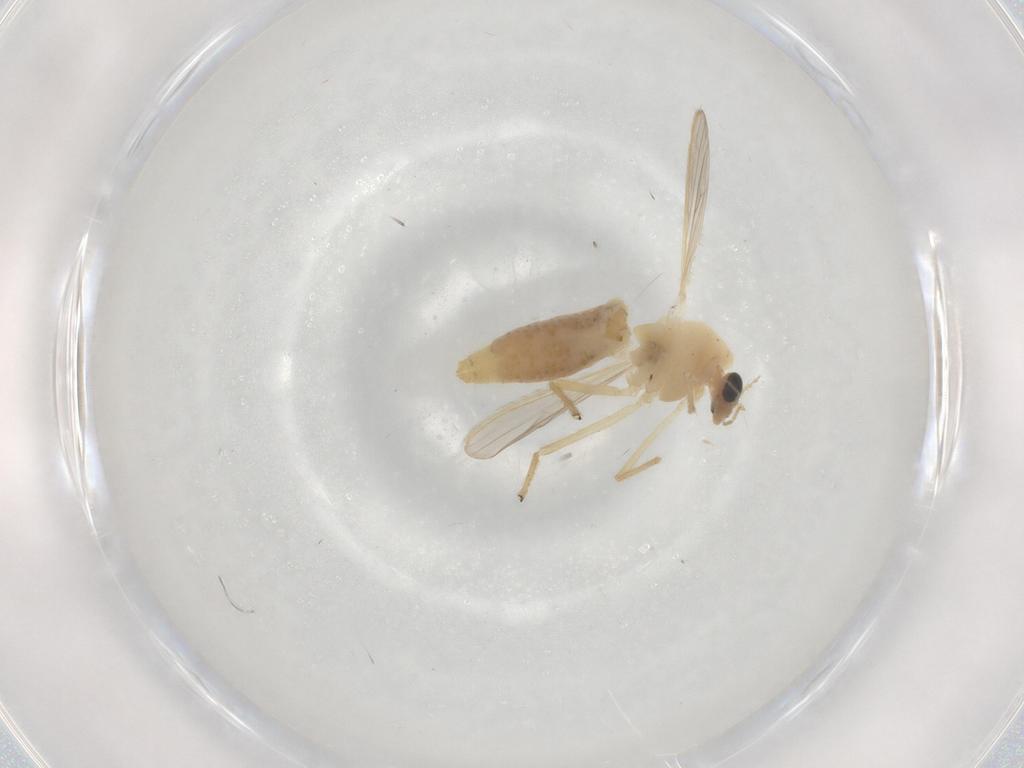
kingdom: Animalia
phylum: Arthropoda
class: Insecta
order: Diptera
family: Chironomidae
